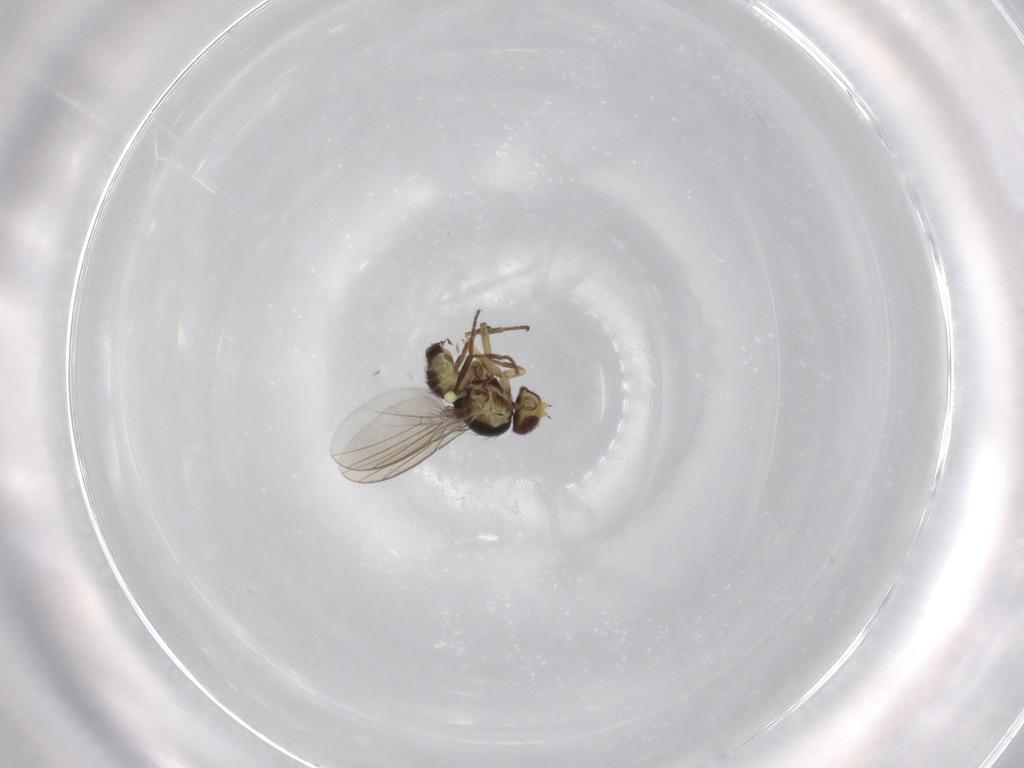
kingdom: Animalia
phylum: Arthropoda
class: Insecta
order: Diptera
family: Agromyzidae
